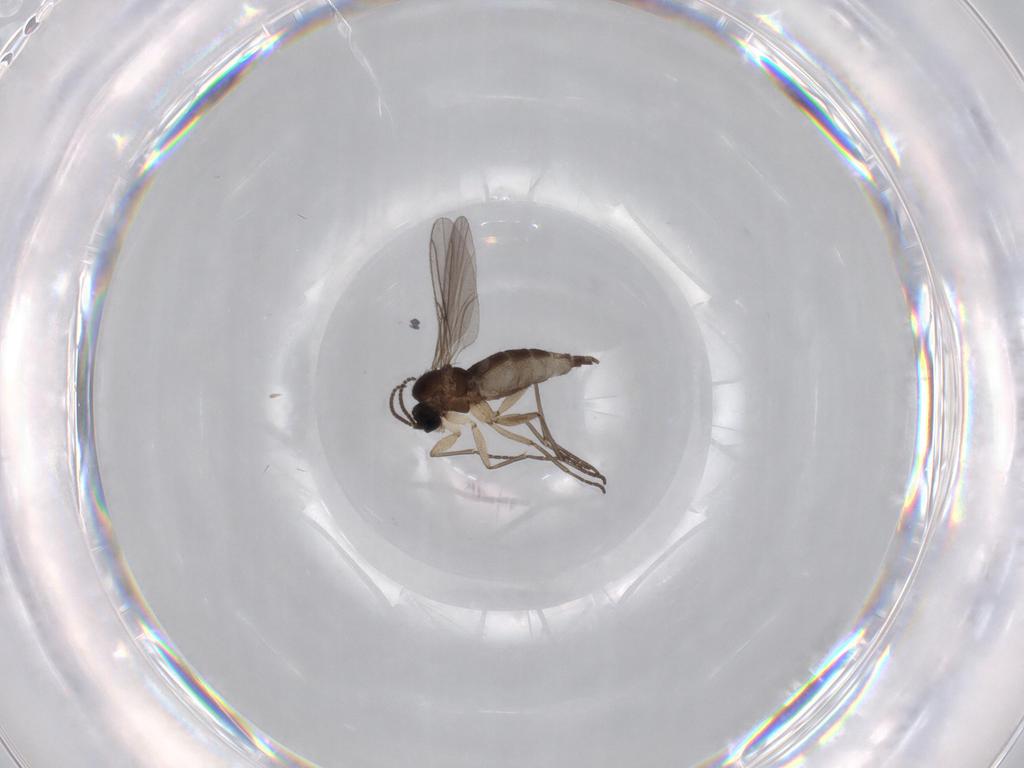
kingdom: Animalia
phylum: Arthropoda
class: Insecta
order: Diptera
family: Sciaridae
